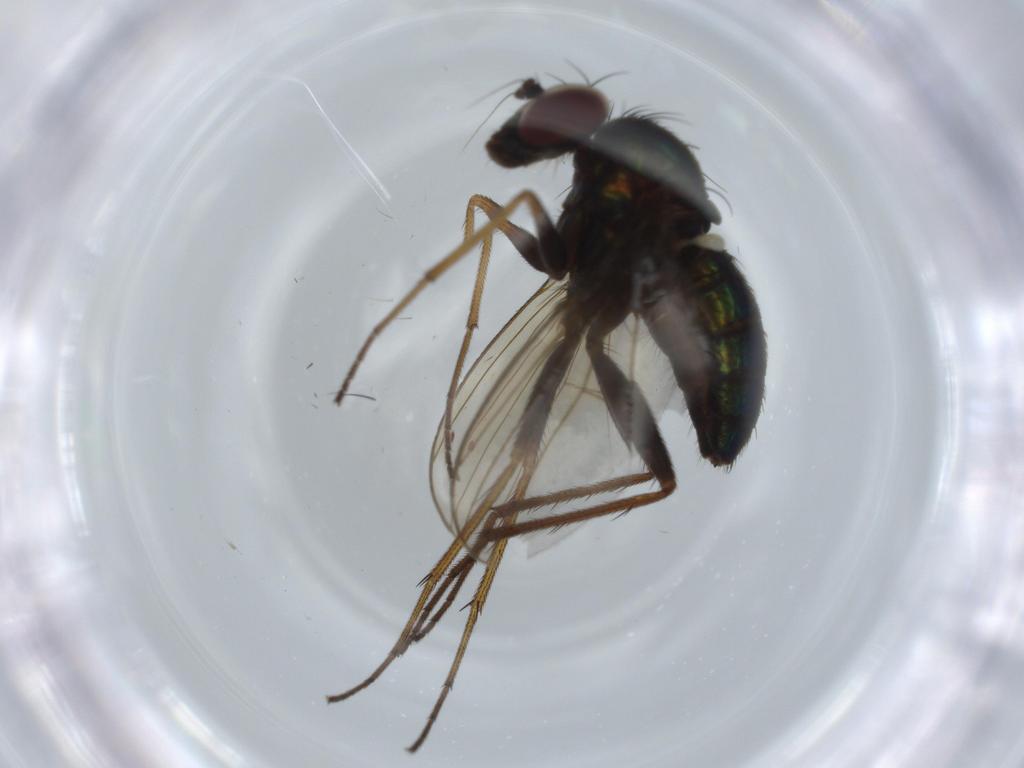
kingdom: Animalia
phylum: Arthropoda
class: Insecta
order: Diptera
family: Dolichopodidae
